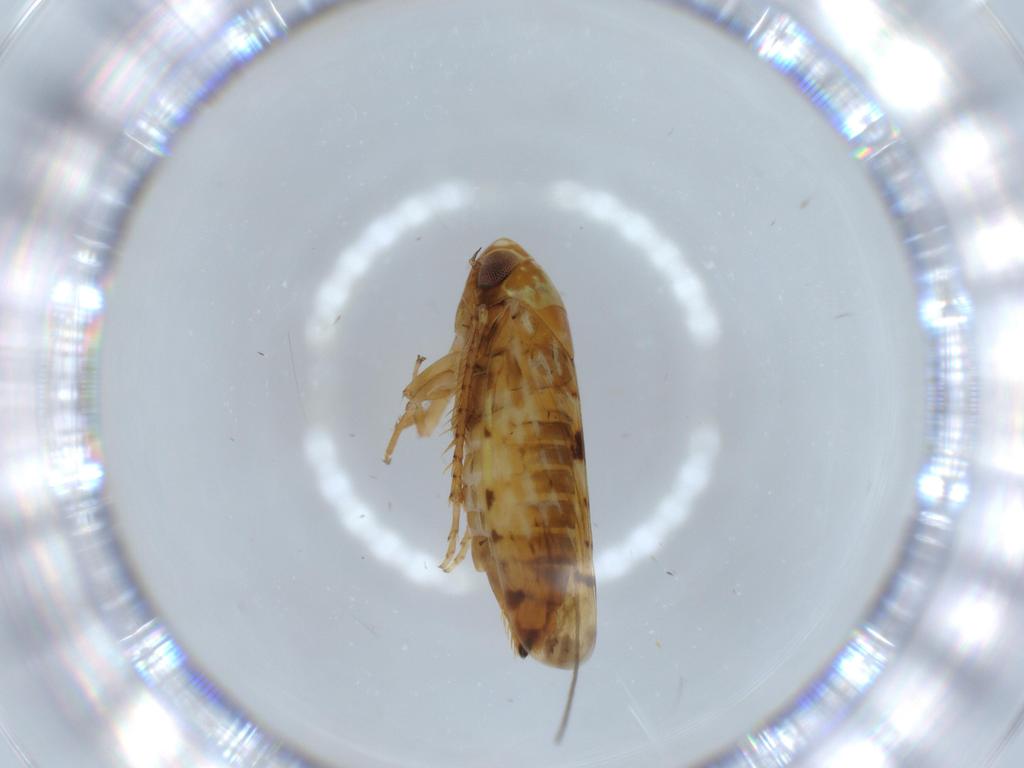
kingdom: Animalia
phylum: Arthropoda
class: Insecta
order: Hemiptera
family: Cicadellidae
